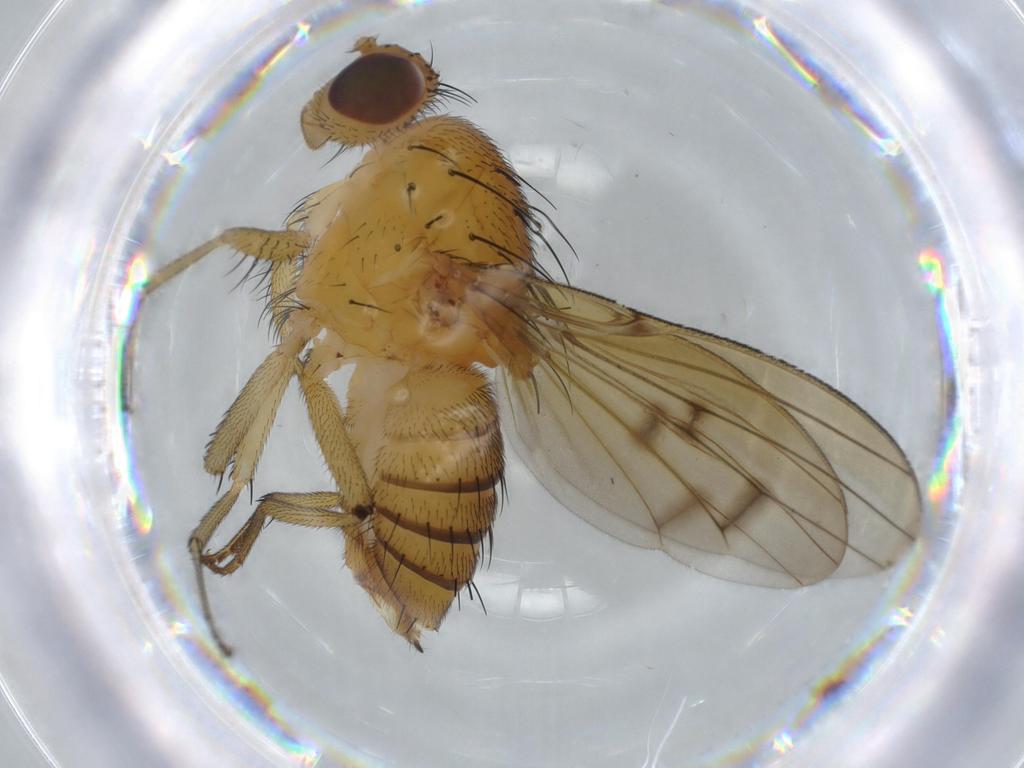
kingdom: Animalia
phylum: Arthropoda
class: Insecta
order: Diptera
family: Lauxaniidae
